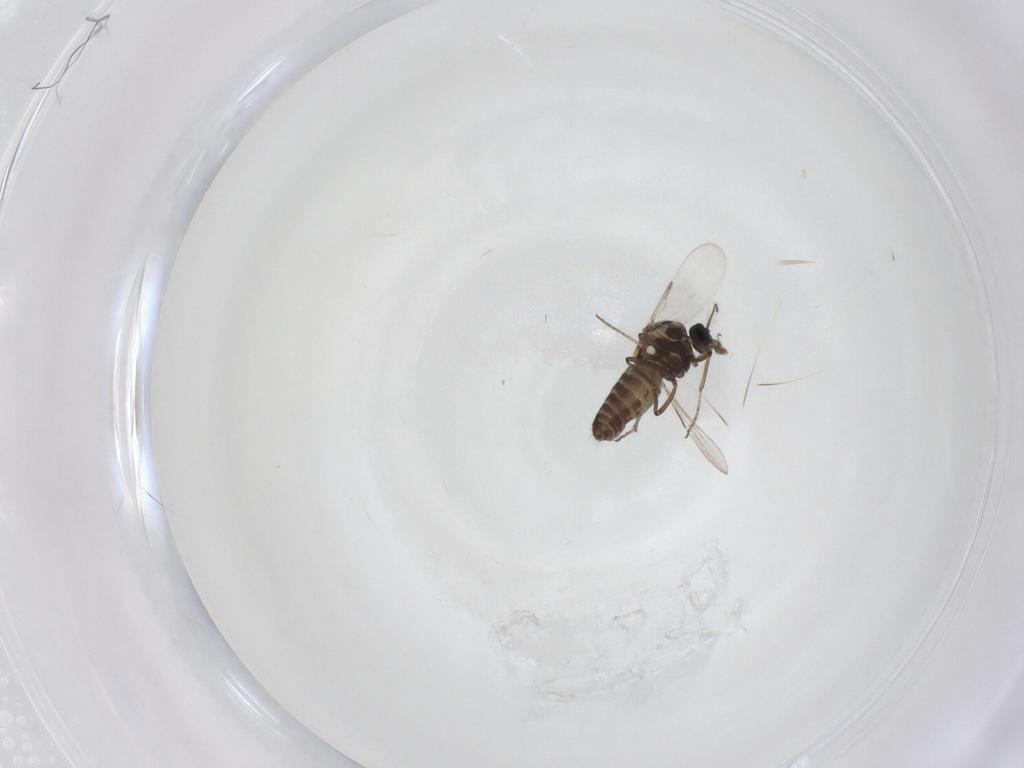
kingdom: Animalia
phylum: Arthropoda
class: Insecta
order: Diptera
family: Ceratopogonidae
